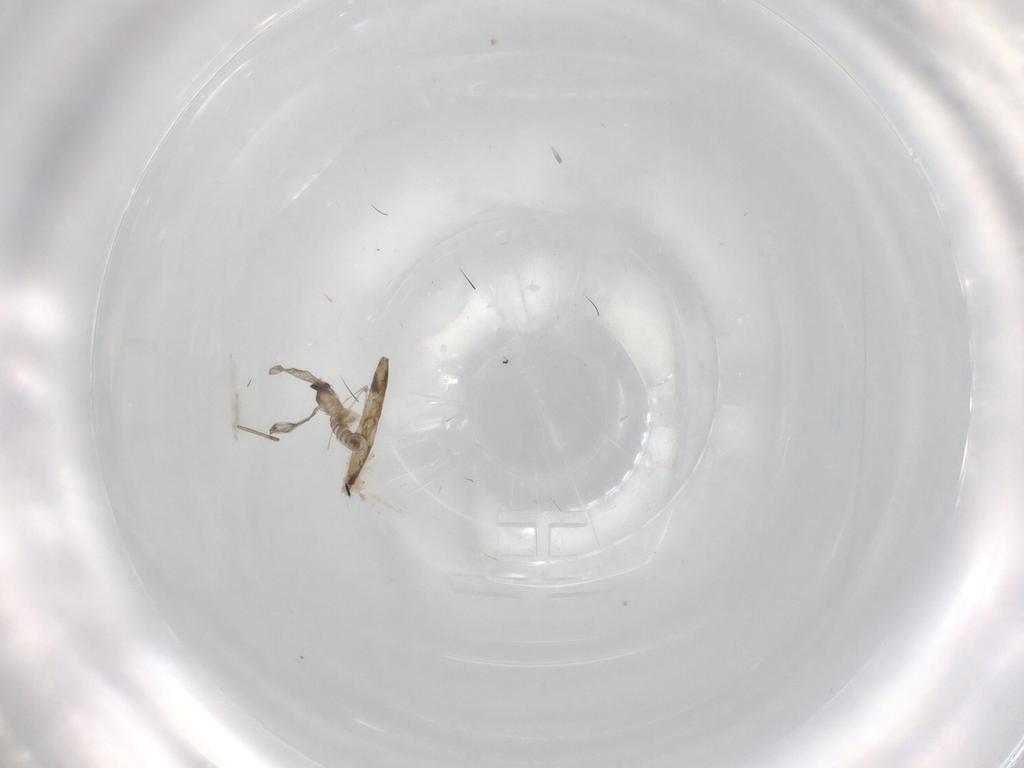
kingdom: Animalia
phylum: Arthropoda
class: Insecta
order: Diptera
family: Cecidomyiidae
